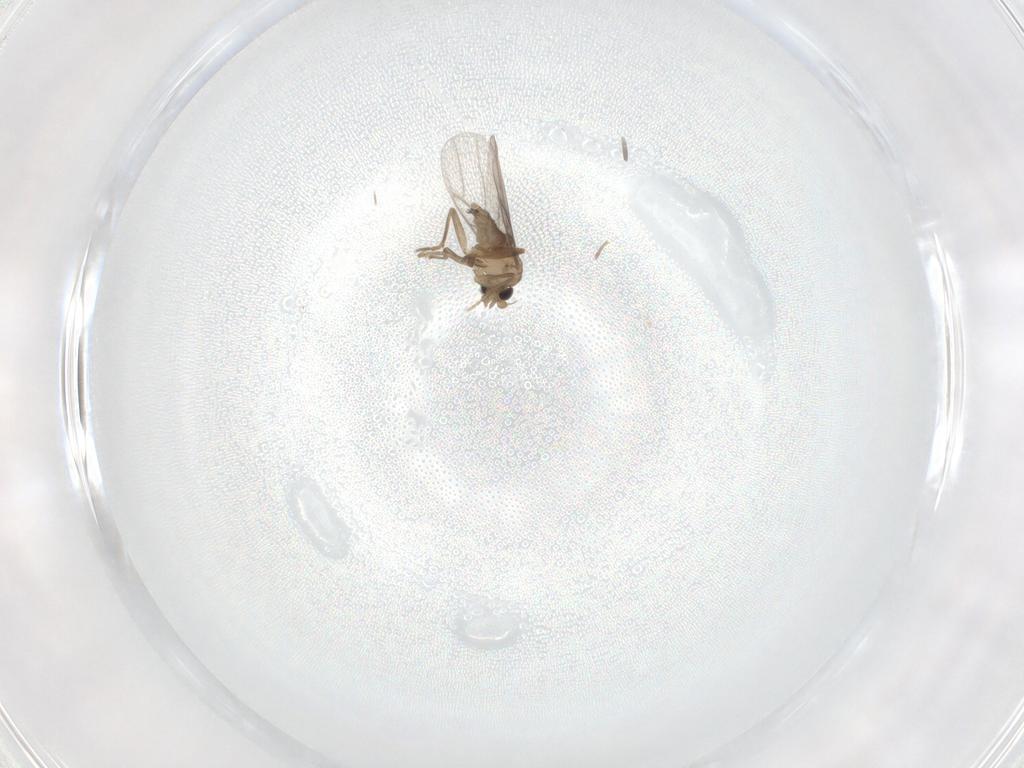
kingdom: Animalia
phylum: Arthropoda
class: Insecta
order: Diptera
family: Phoridae
